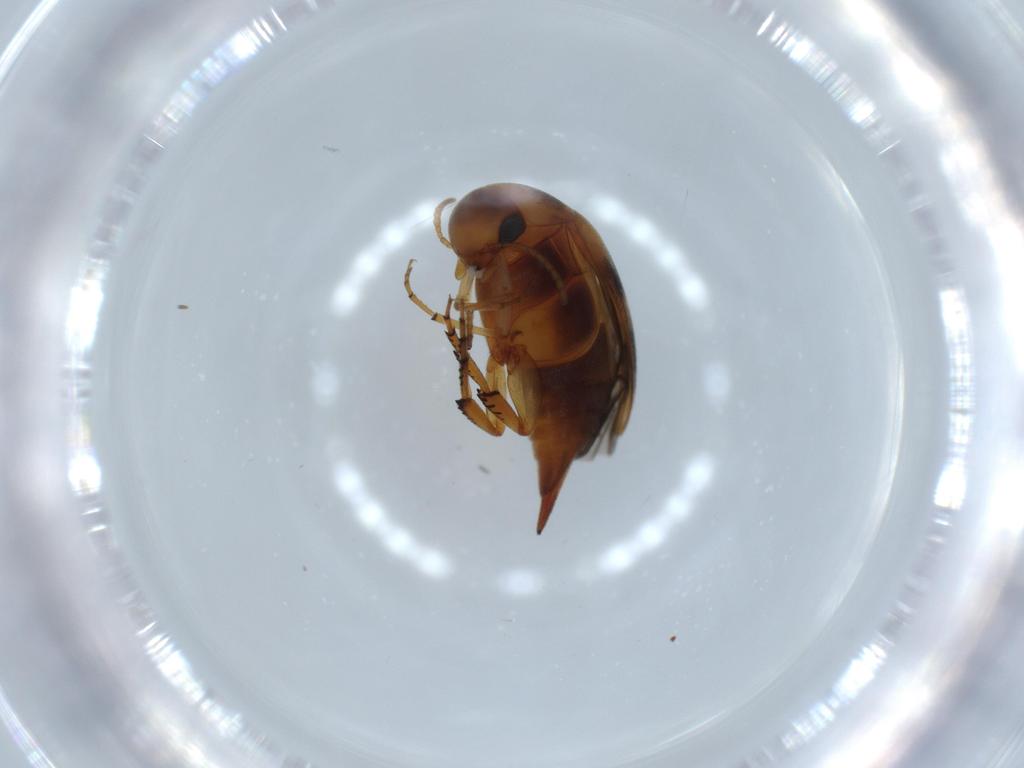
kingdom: Animalia
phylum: Arthropoda
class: Insecta
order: Coleoptera
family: Mordellidae
